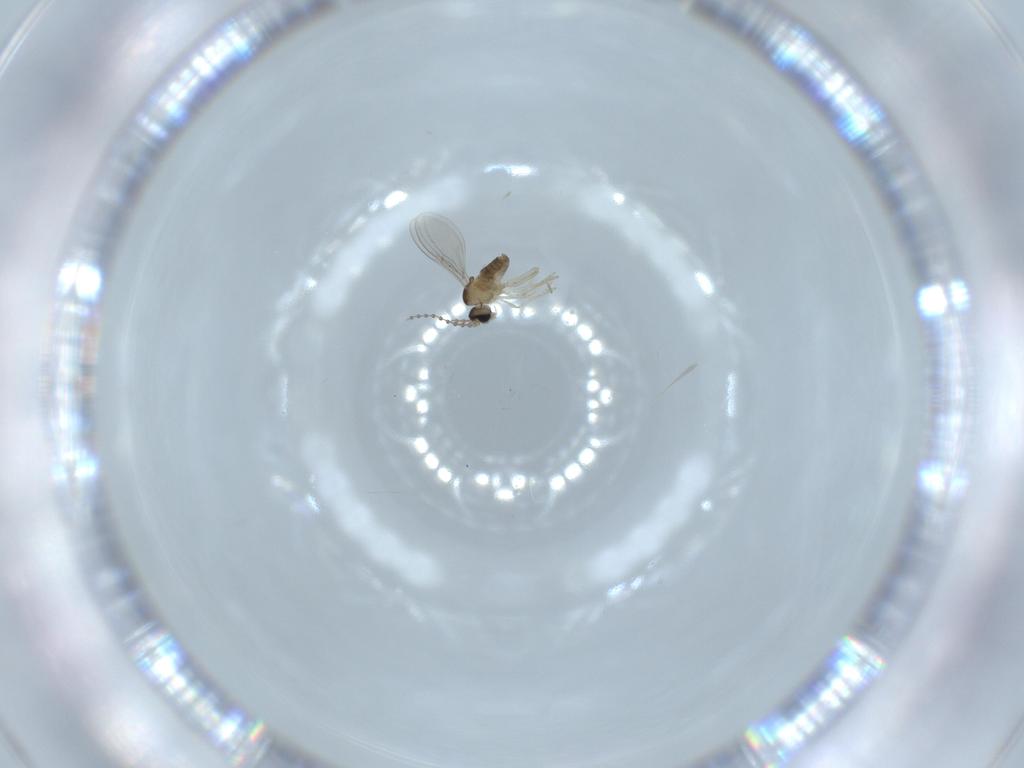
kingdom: Animalia
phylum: Arthropoda
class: Insecta
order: Diptera
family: Cecidomyiidae
